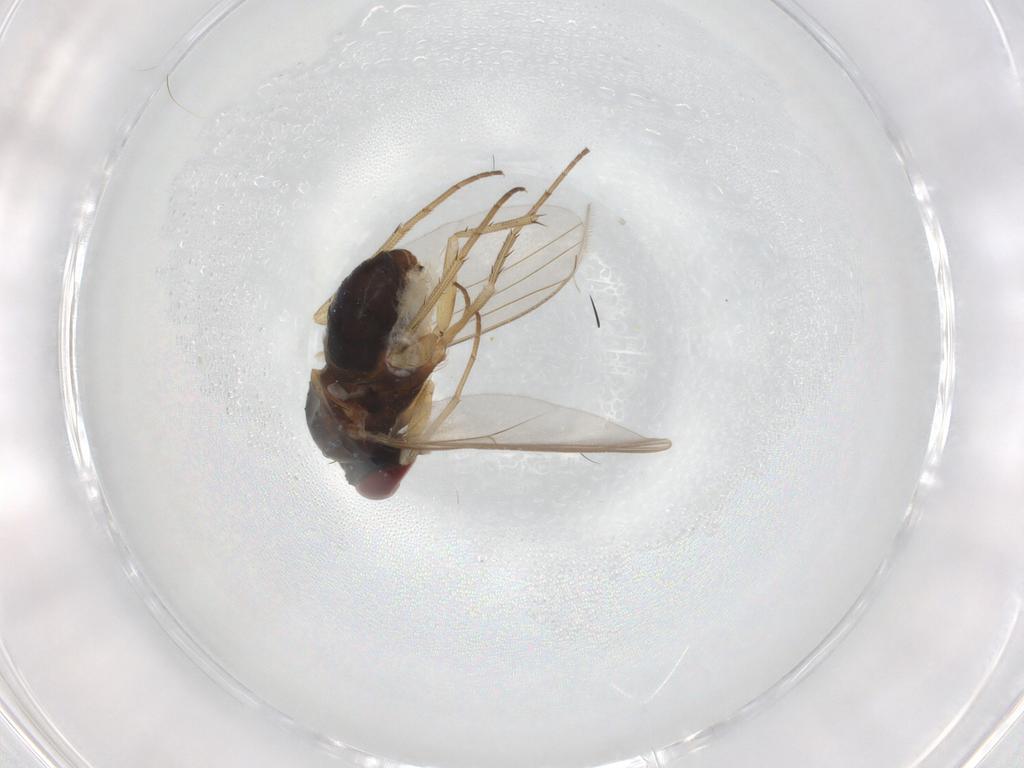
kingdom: Animalia
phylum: Arthropoda
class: Insecta
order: Diptera
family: Dolichopodidae
